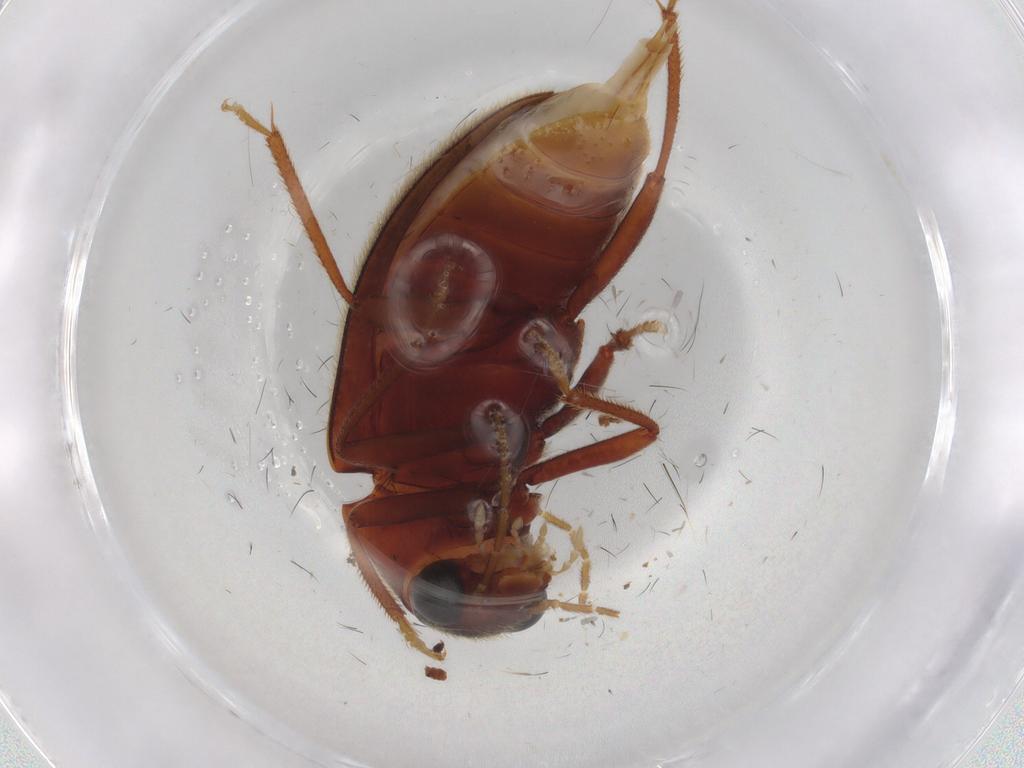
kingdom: Animalia
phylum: Arthropoda
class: Insecta
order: Coleoptera
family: Ptilodactylidae
